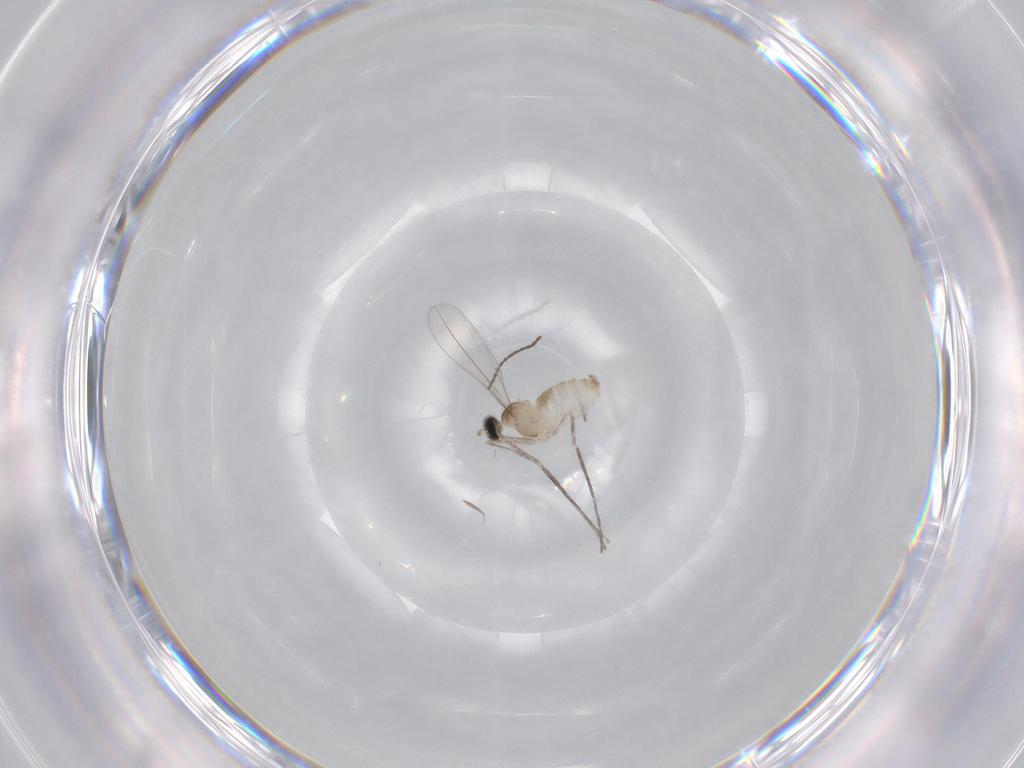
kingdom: Animalia
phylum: Arthropoda
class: Insecta
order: Diptera
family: Cecidomyiidae
